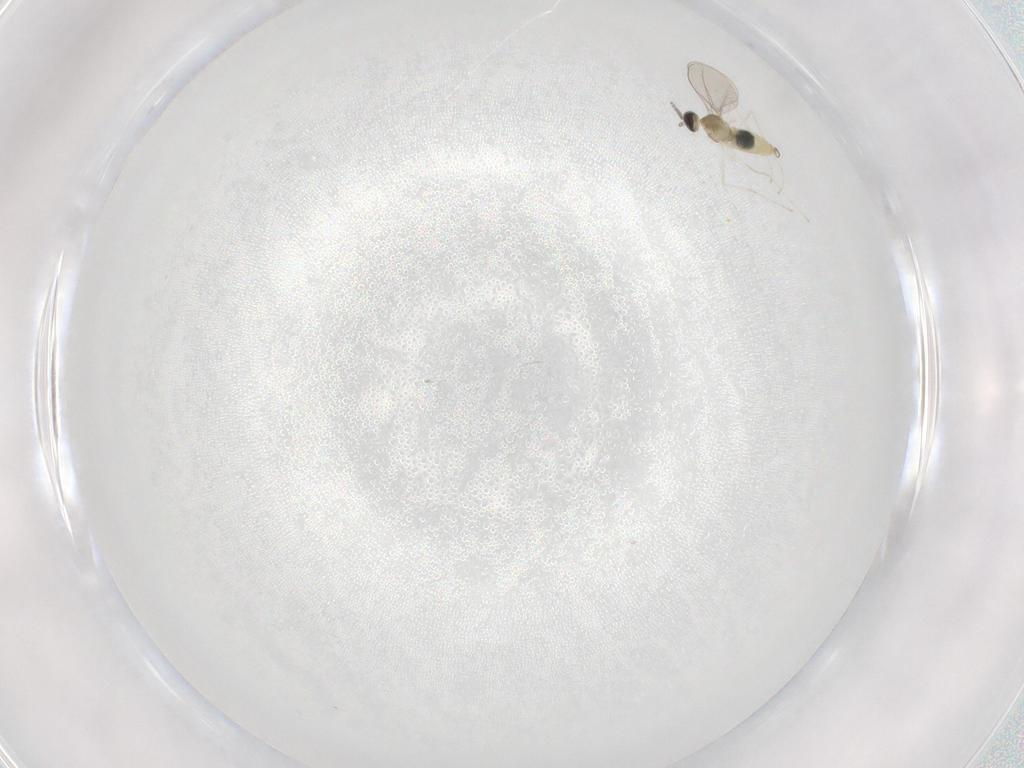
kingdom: Animalia
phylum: Arthropoda
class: Insecta
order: Diptera
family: Cecidomyiidae
